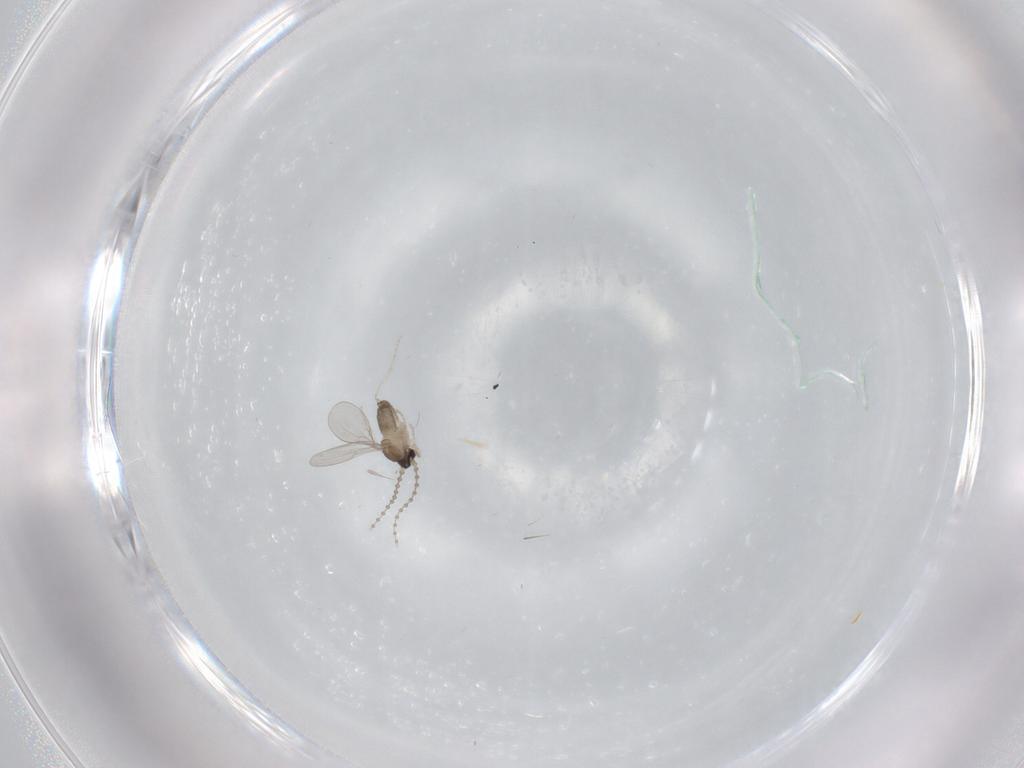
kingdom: Animalia
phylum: Arthropoda
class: Insecta
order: Diptera
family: Cecidomyiidae
